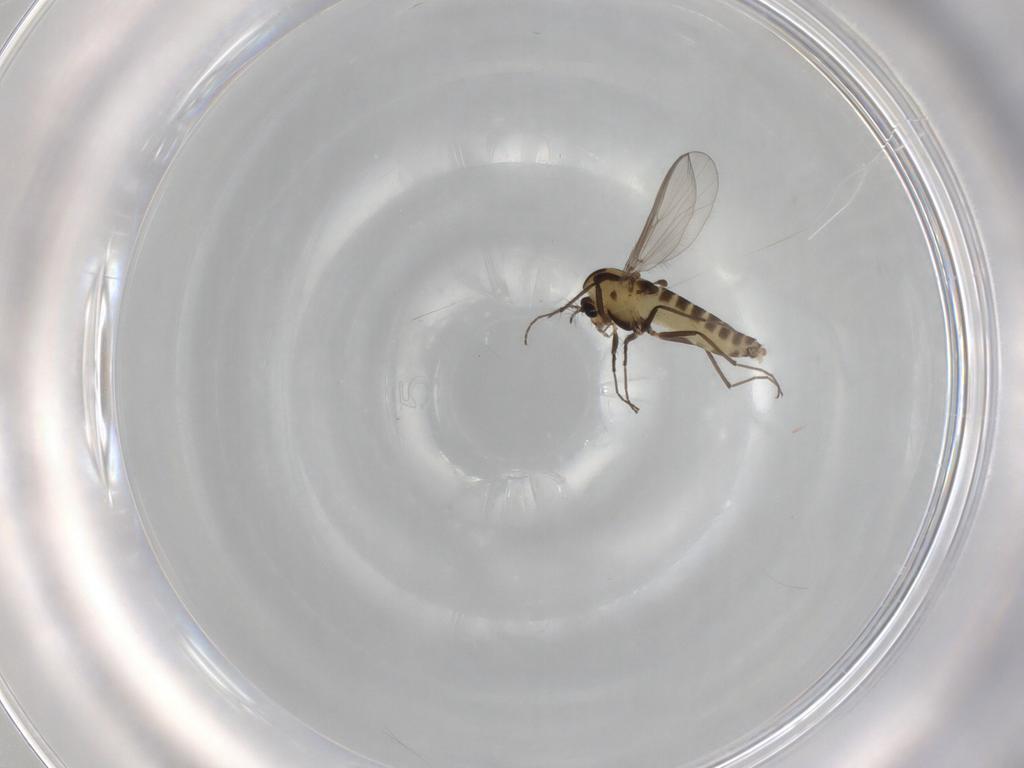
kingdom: Animalia
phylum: Arthropoda
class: Insecta
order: Diptera
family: Chironomidae
